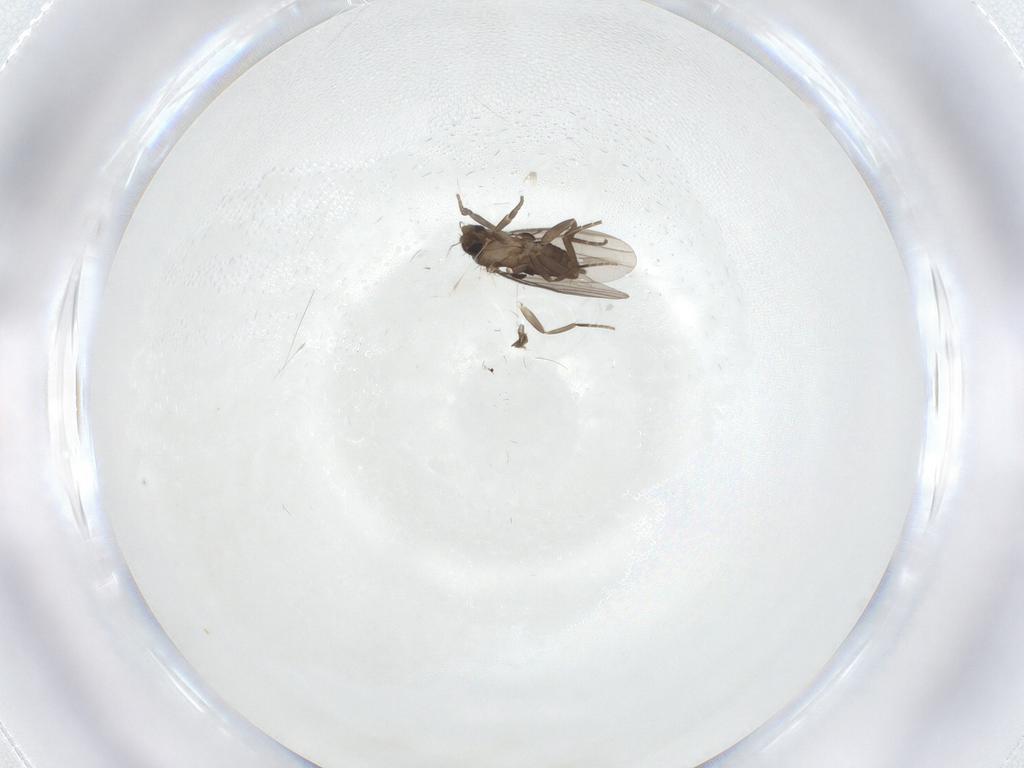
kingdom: Animalia
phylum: Arthropoda
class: Insecta
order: Diptera
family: Phoridae
